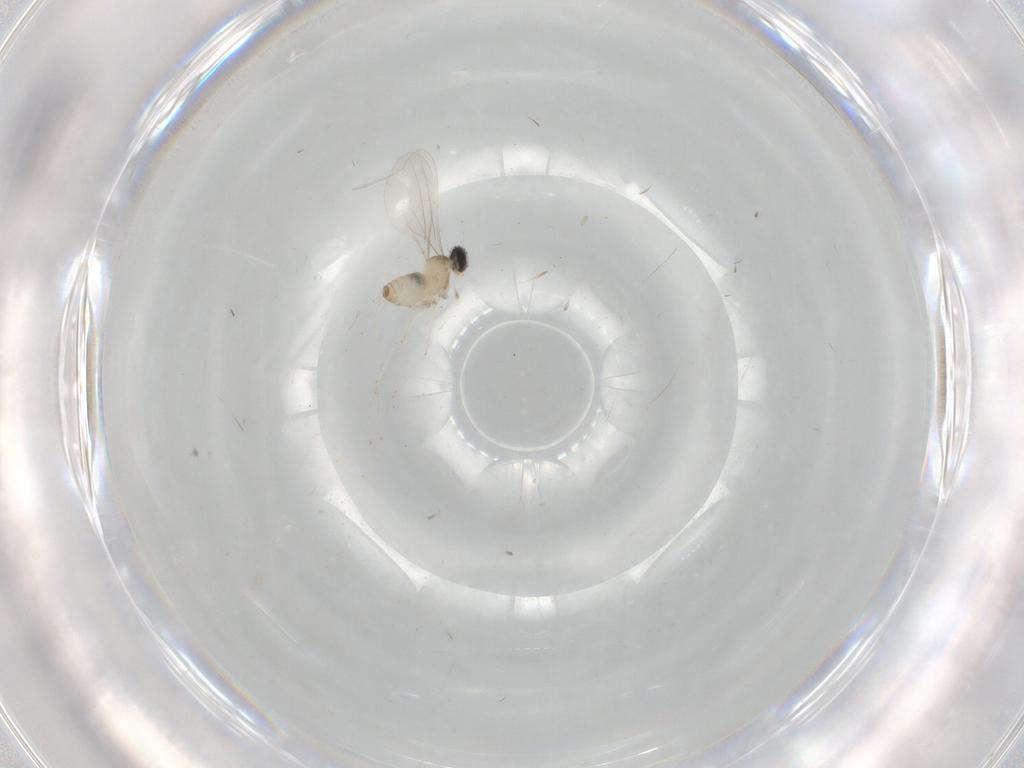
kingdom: Animalia
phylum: Arthropoda
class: Insecta
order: Diptera
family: Cecidomyiidae
